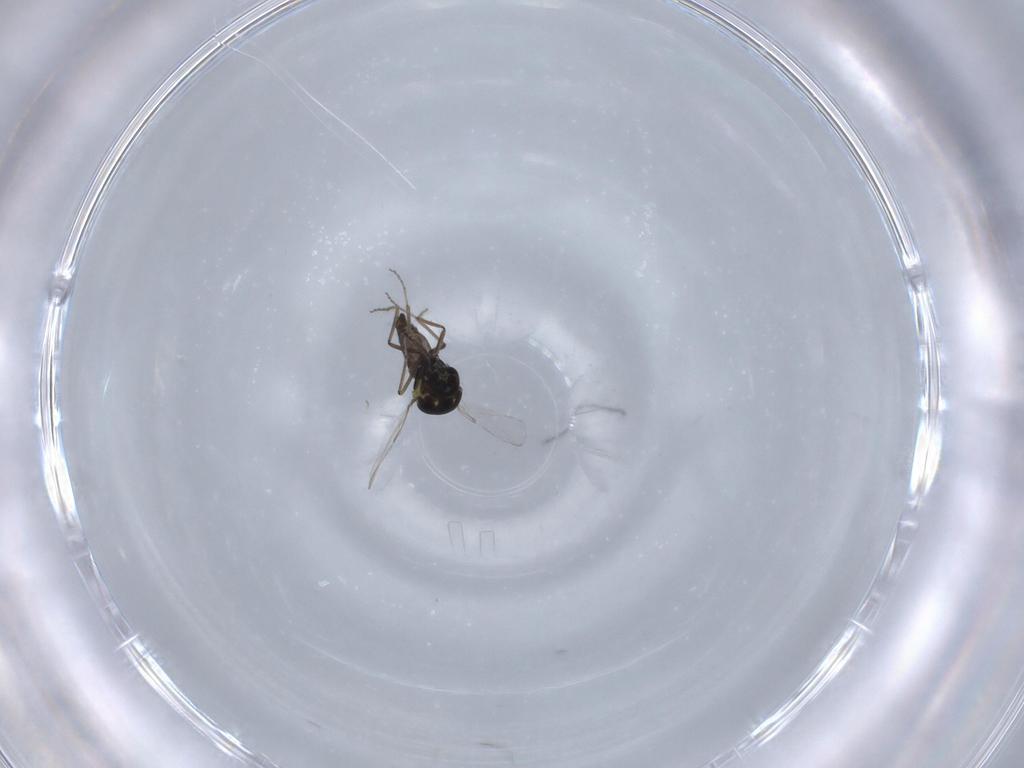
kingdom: Animalia
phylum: Arthropoda
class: Insecta
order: Diptera
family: Ceratopogonidae
